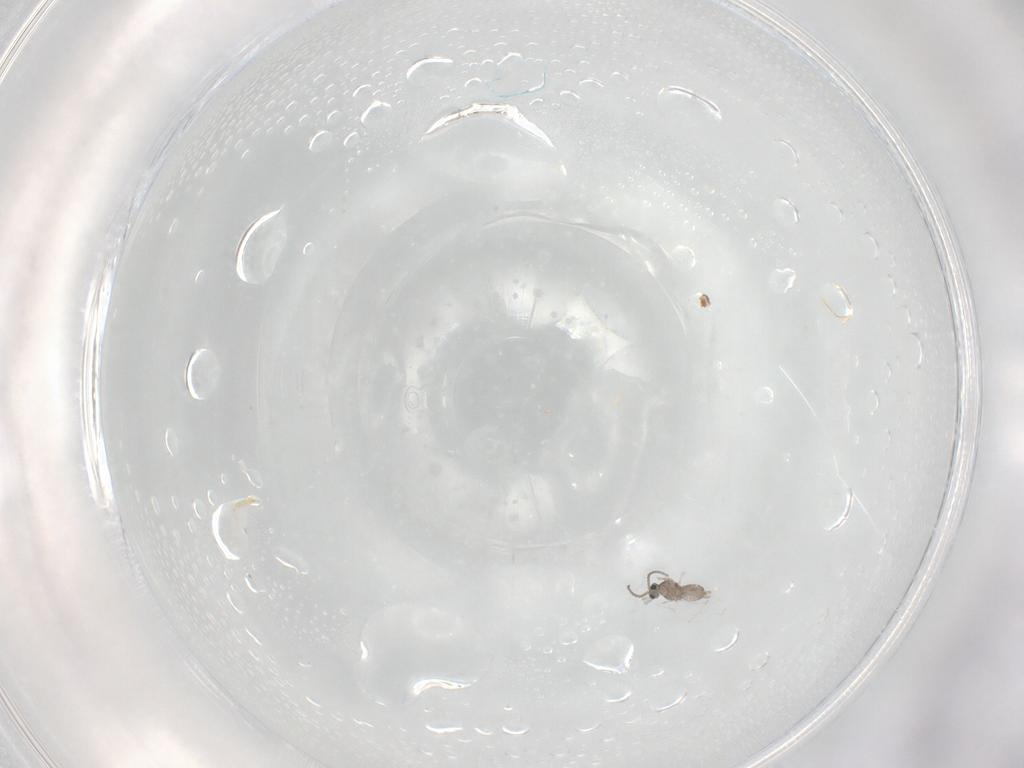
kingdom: Animalia
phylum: Arthropoda
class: Insecta
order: Diptera
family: Cecidomyiidae
